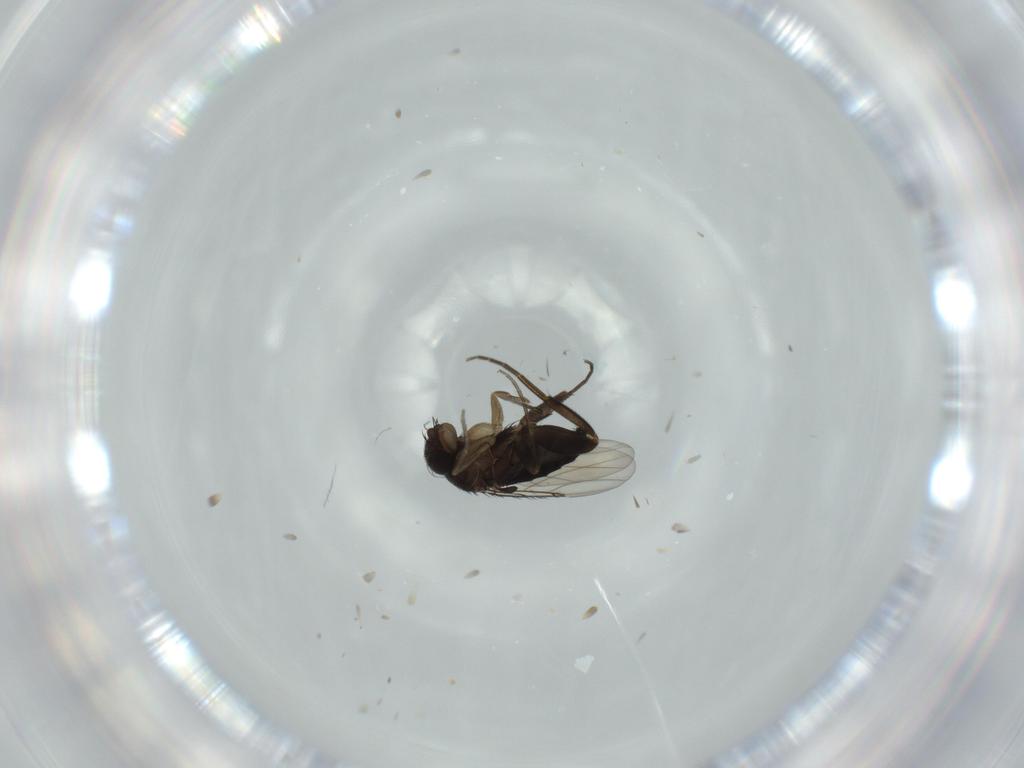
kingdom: Animalia
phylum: Arthropoda
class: Insecta
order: Diptera
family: Phoridae
